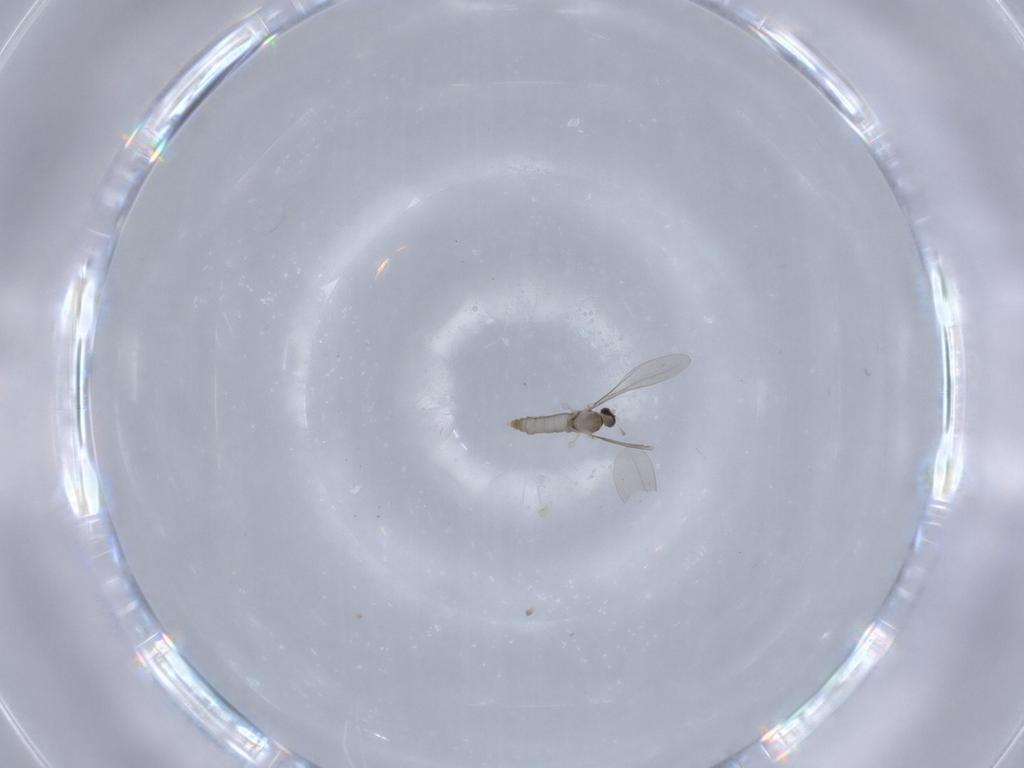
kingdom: Animalia
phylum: Arthropoda
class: Insecta
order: Diptera
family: Cecidomyiidae
